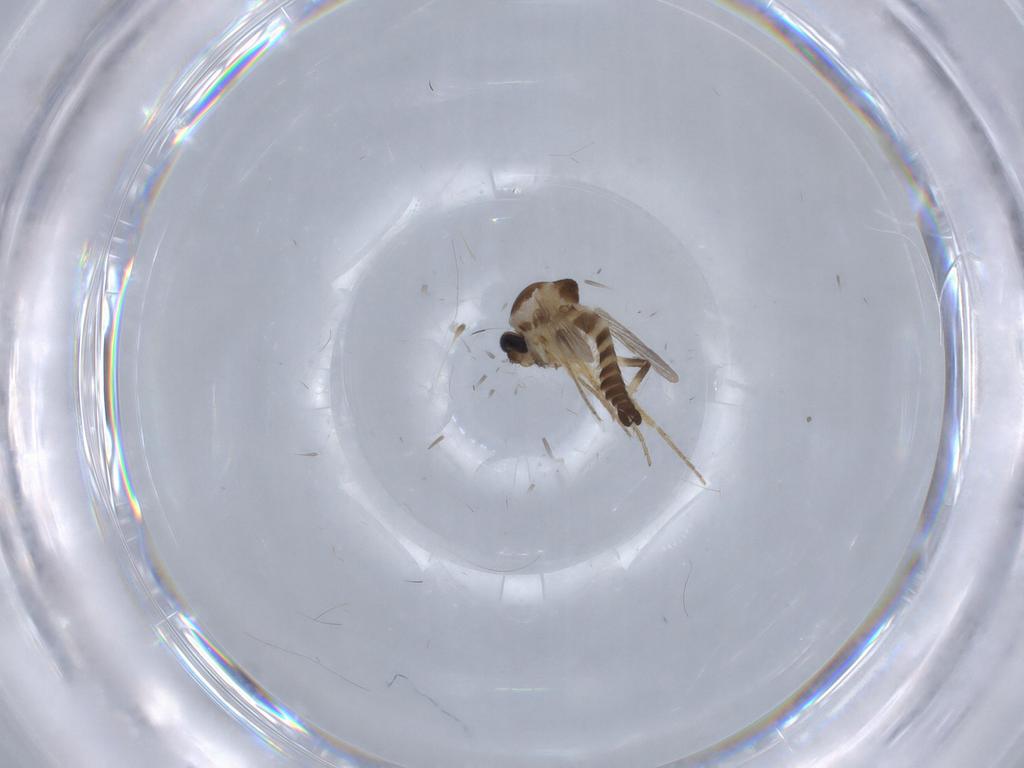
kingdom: Animalia
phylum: Arthropoda
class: Insecta
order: Diptera
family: Ceratopogonidae
